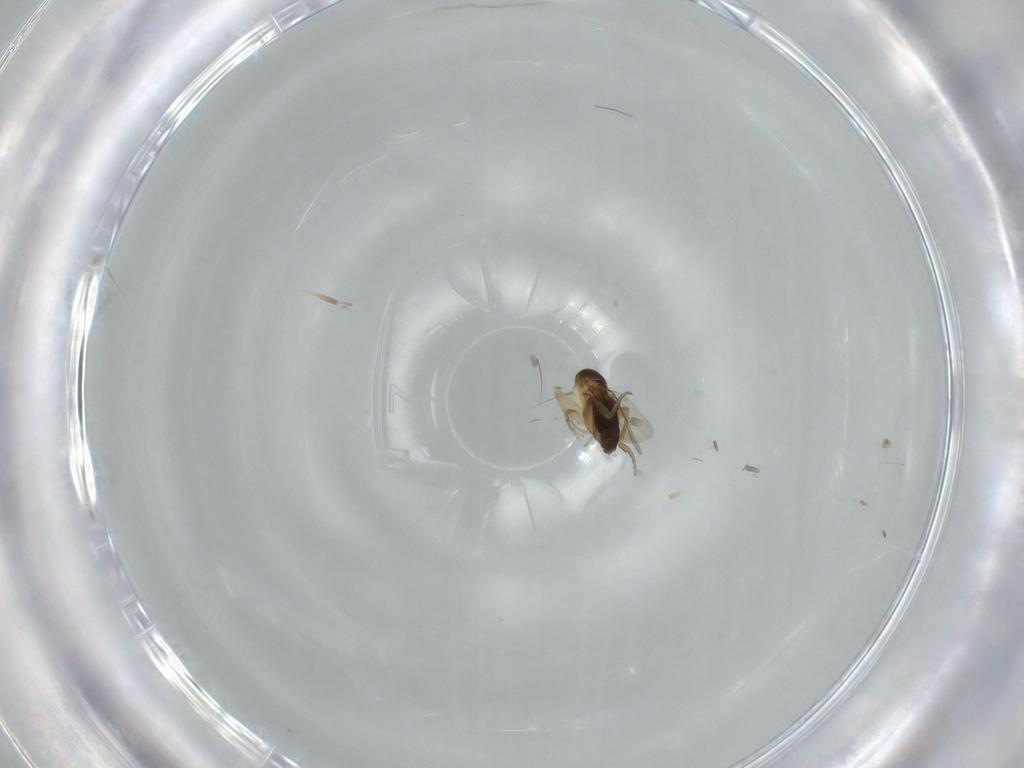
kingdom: Animalia
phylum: Arthropoda
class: Insecta
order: Diptera
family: Phoridae
